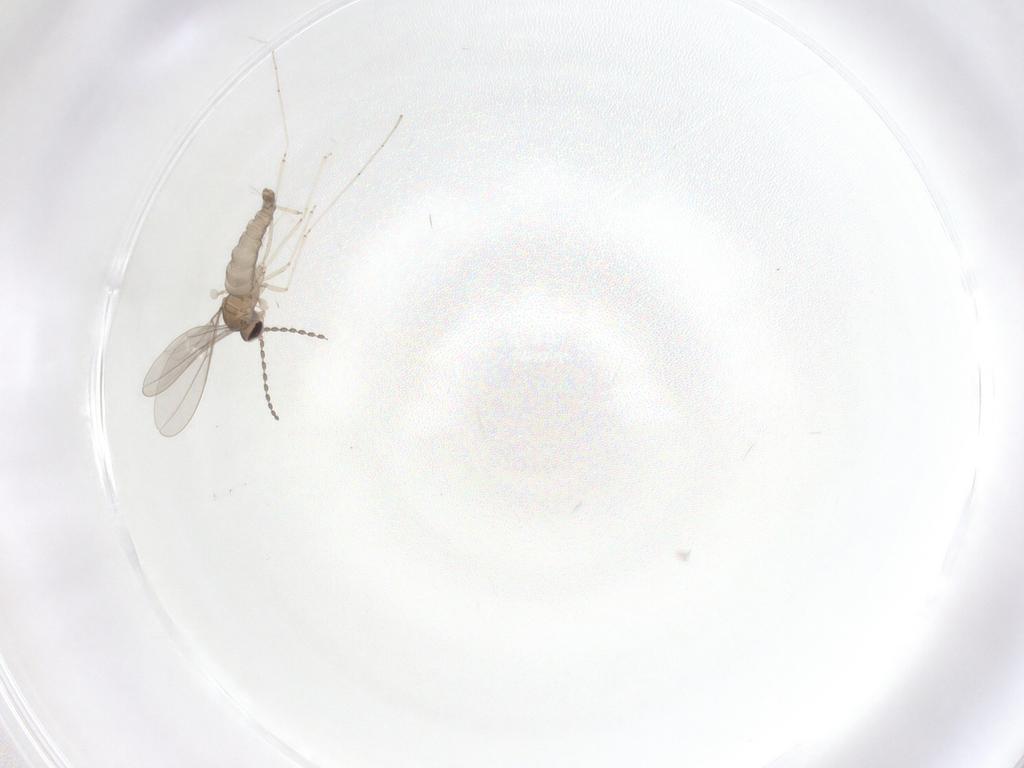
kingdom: Animalia
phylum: Arthropoda
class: Insecta
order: Diptera
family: Cecidomyiidae
